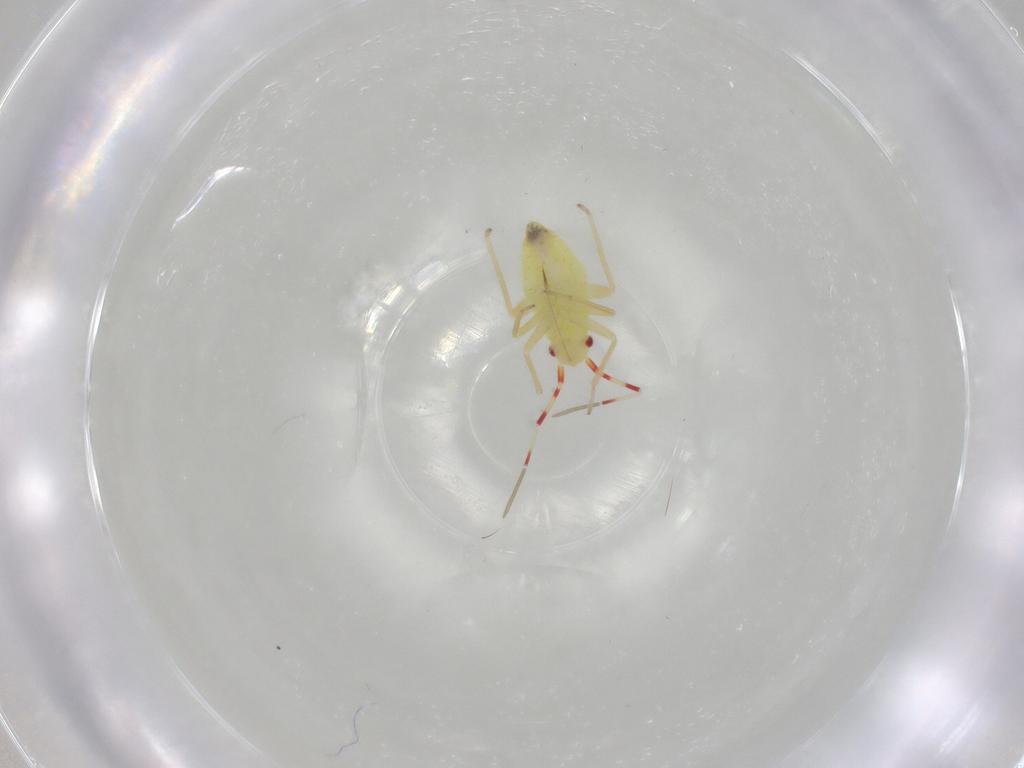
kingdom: Animalia
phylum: Arthropoda
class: Insecta
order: Hemiptera
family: Miridae
